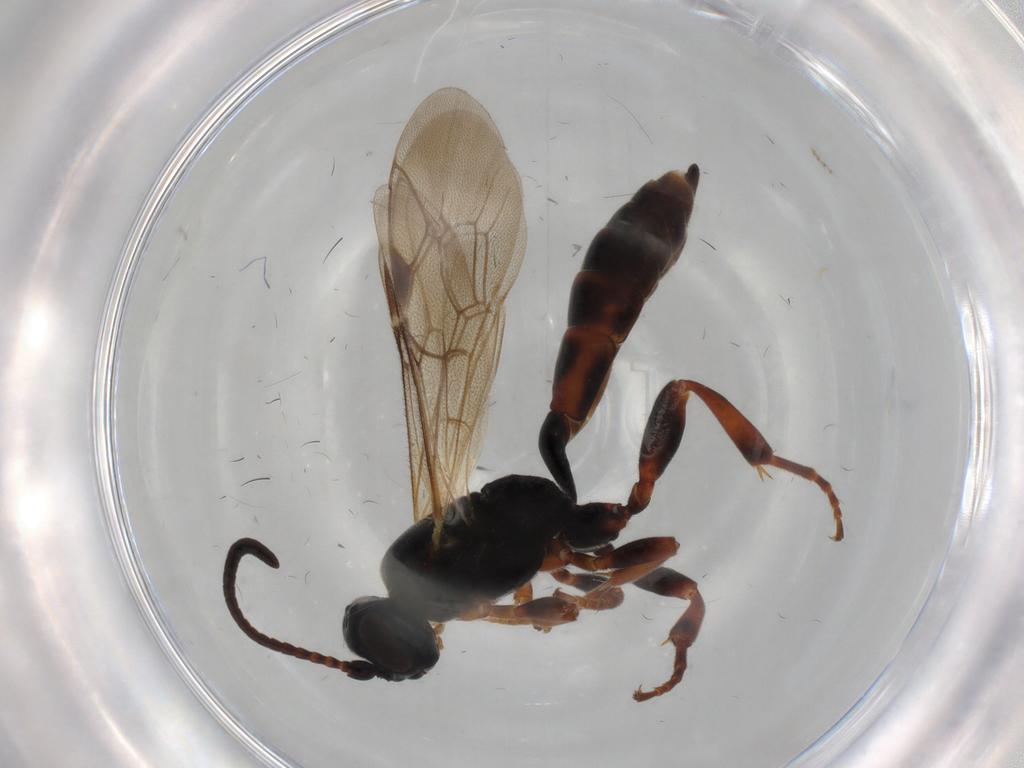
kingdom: Animalia
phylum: Arthropoda
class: Insecta
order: Hymenoptera
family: Ichneumonidae
